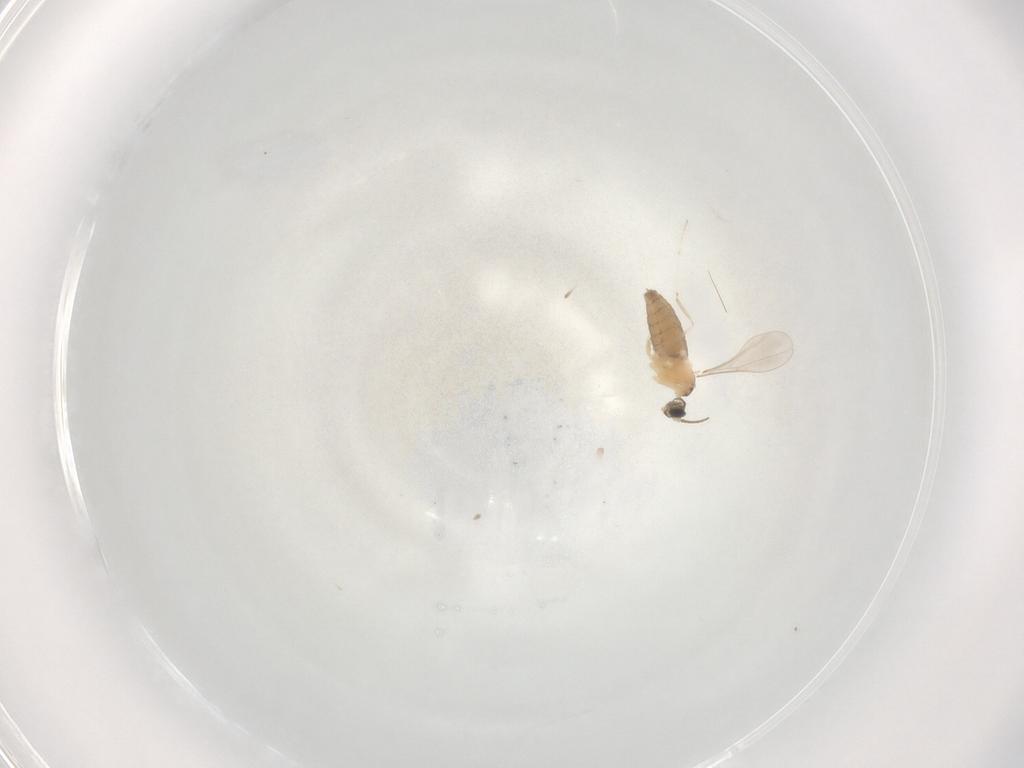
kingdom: Animalia
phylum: Arthropoda
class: Insecta
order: Diptera
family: Cecidomyiidae
